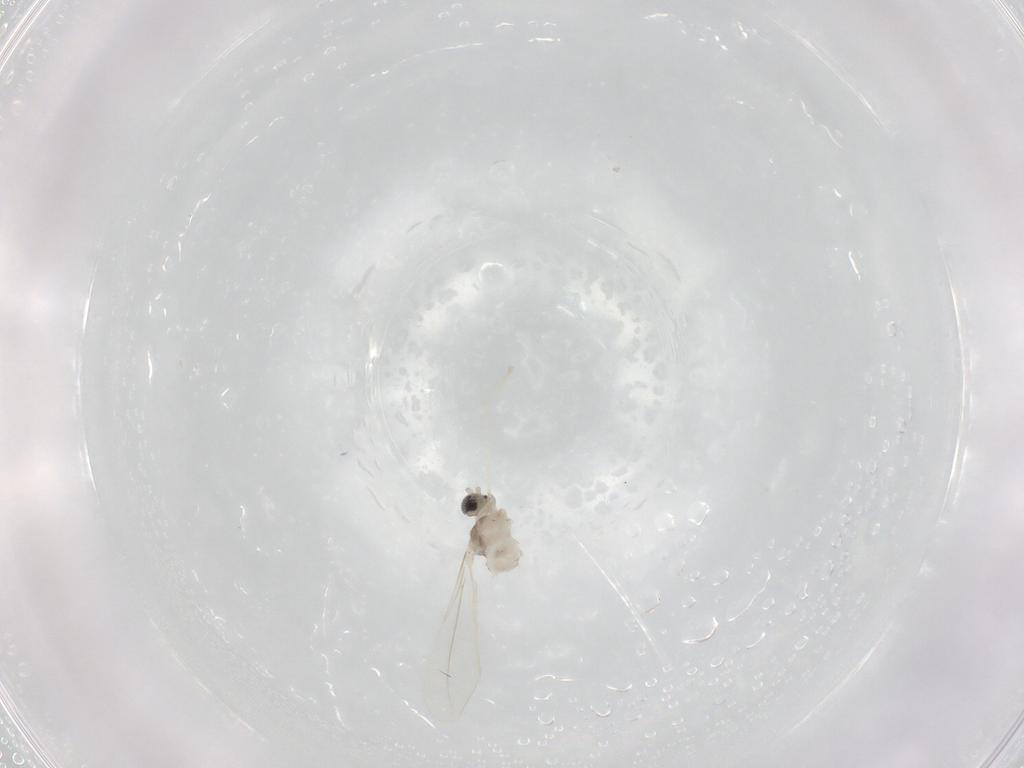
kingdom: Animalia
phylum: Arthropoda
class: Insecta
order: Diptera
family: Cecidomyiidae
